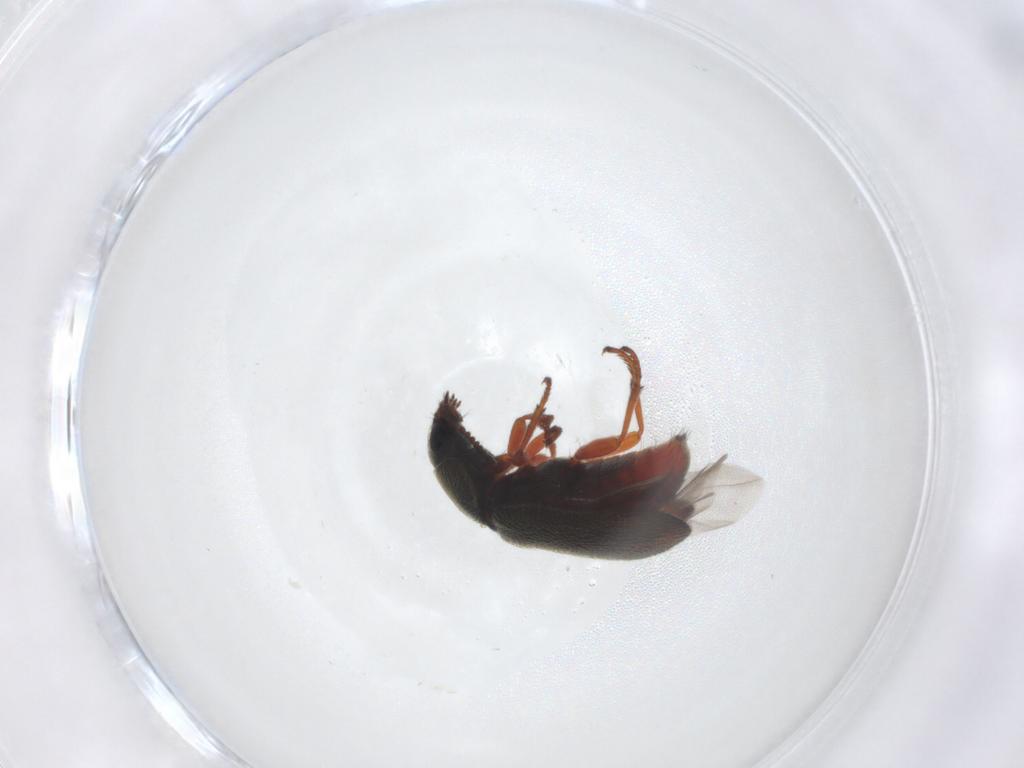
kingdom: Animalia
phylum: Arthropoda
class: Insecta
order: Coleoptera
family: Melyridae
